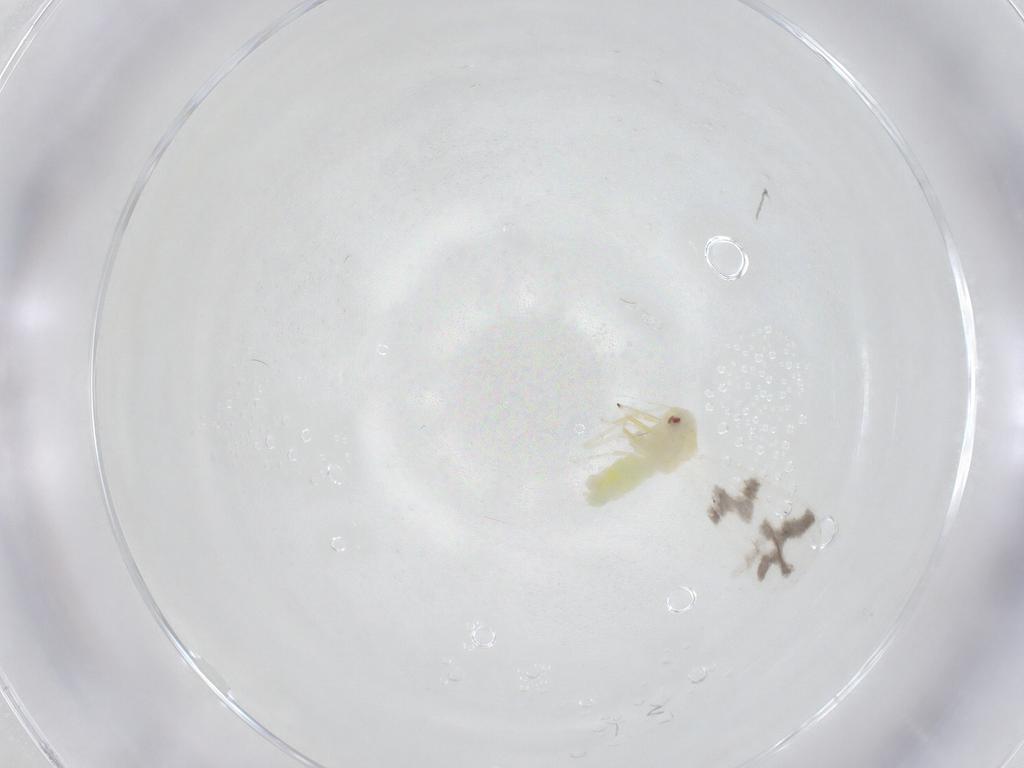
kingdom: Animalia
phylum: Arthropoda
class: Insecta
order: Hemiptera
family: Aleyrodidae
